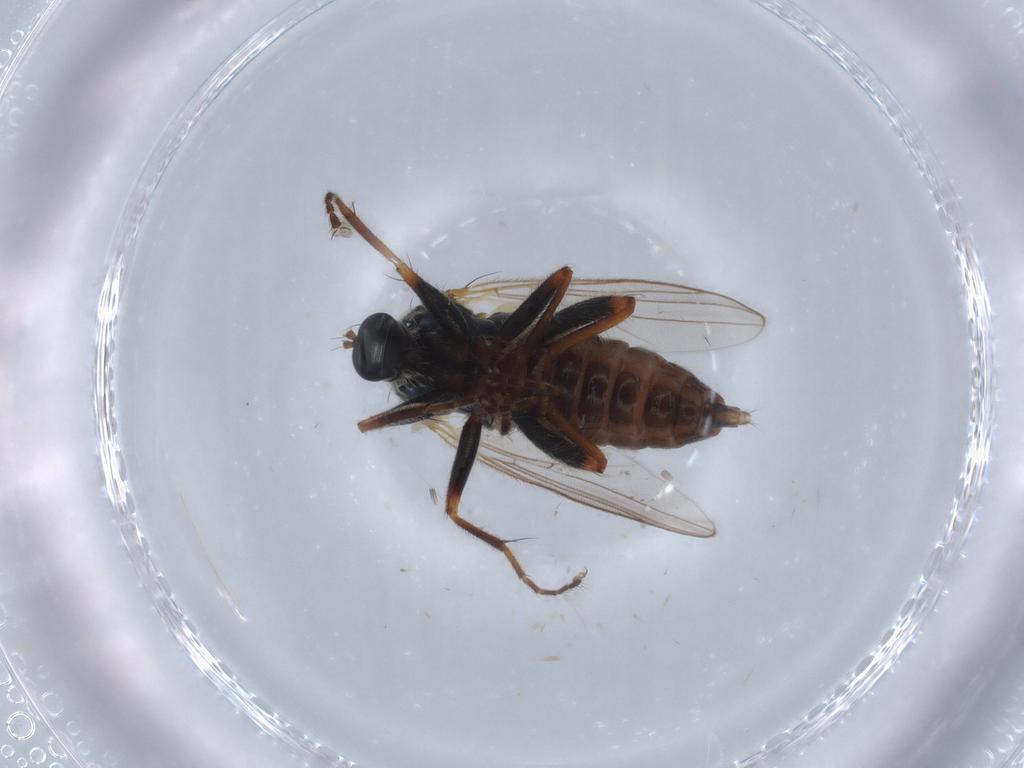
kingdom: Animalia
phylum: Arthropoda
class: Insecta
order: Diptera
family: Hybotidae
